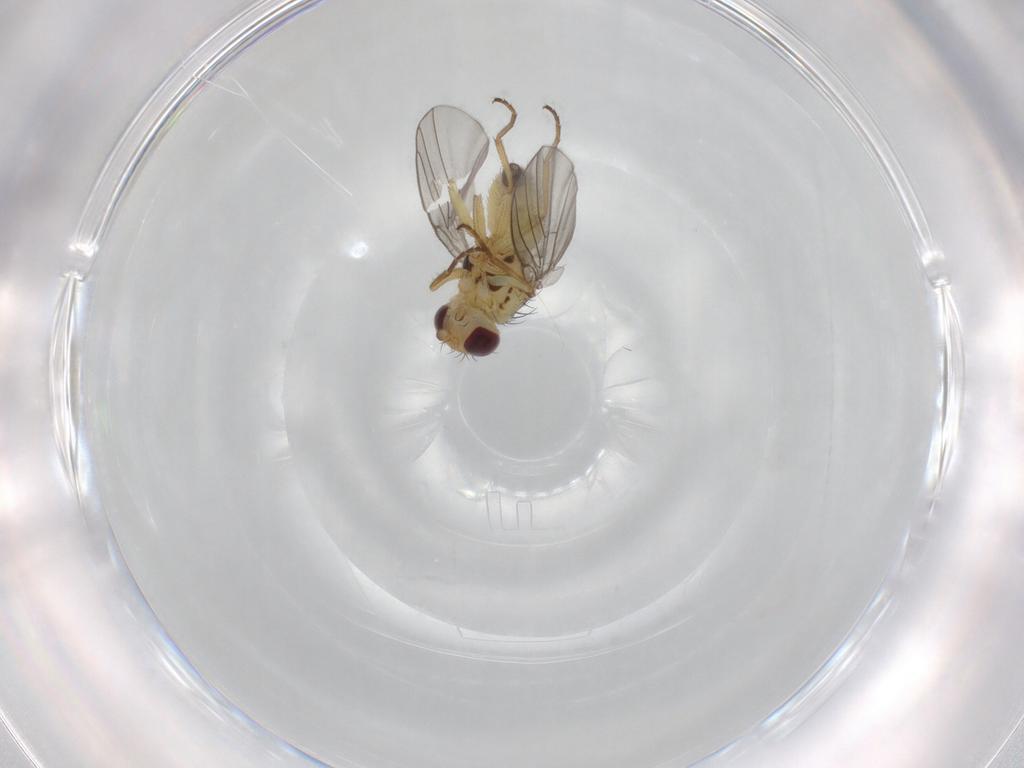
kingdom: Animalia
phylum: Arthropoda
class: Insecta
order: Diptera
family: Agromyzidae
